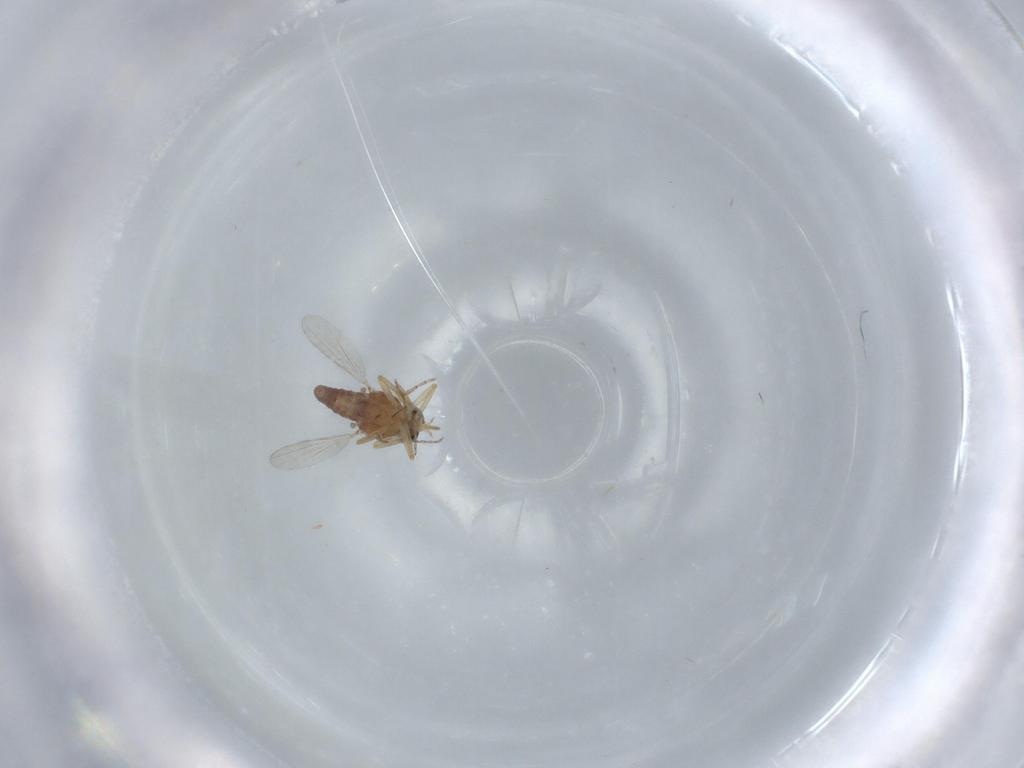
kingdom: Animalia
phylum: Arthropoda
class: Insecta
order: Diptera
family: Ceratopogonidae
